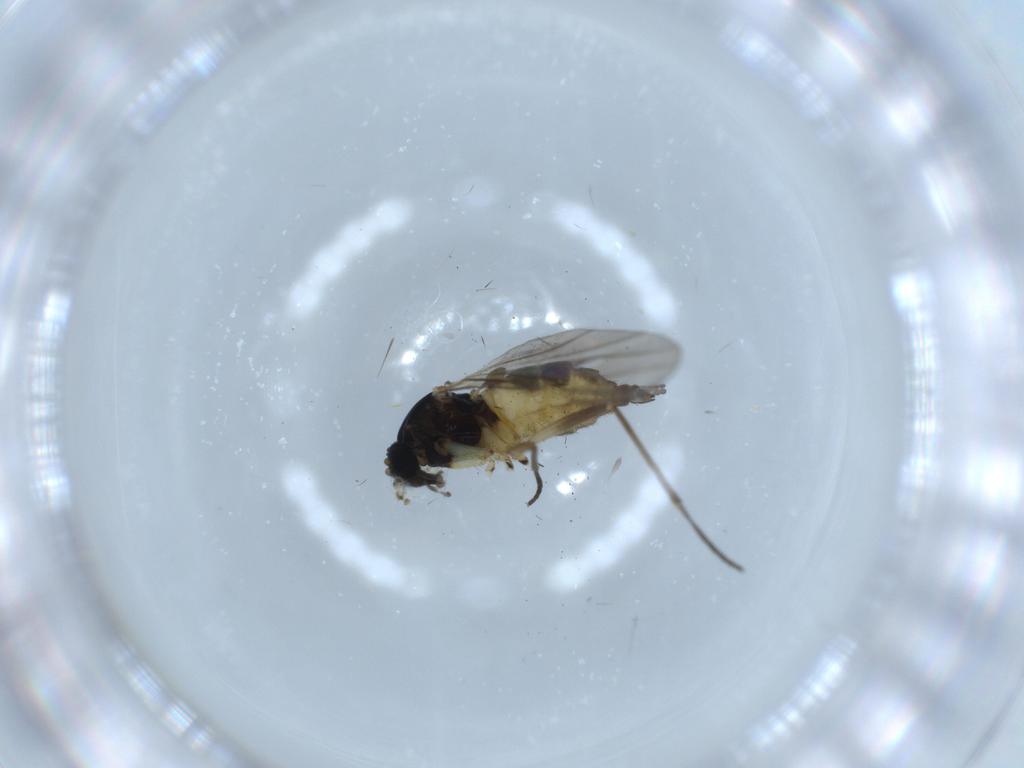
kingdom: Animalia
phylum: Arthropoda
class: Insecta
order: Diptera
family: Sciaridae
